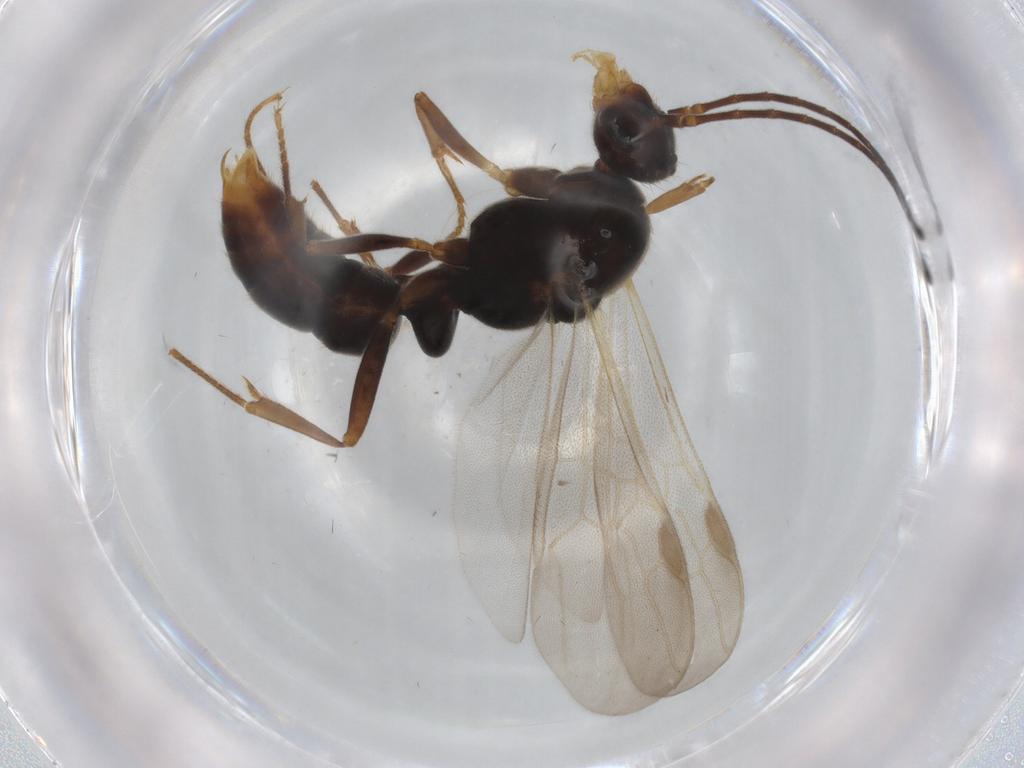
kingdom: Animalia
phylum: Arthropoda
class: Insecta
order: Hymenoptera
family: Formicidae
